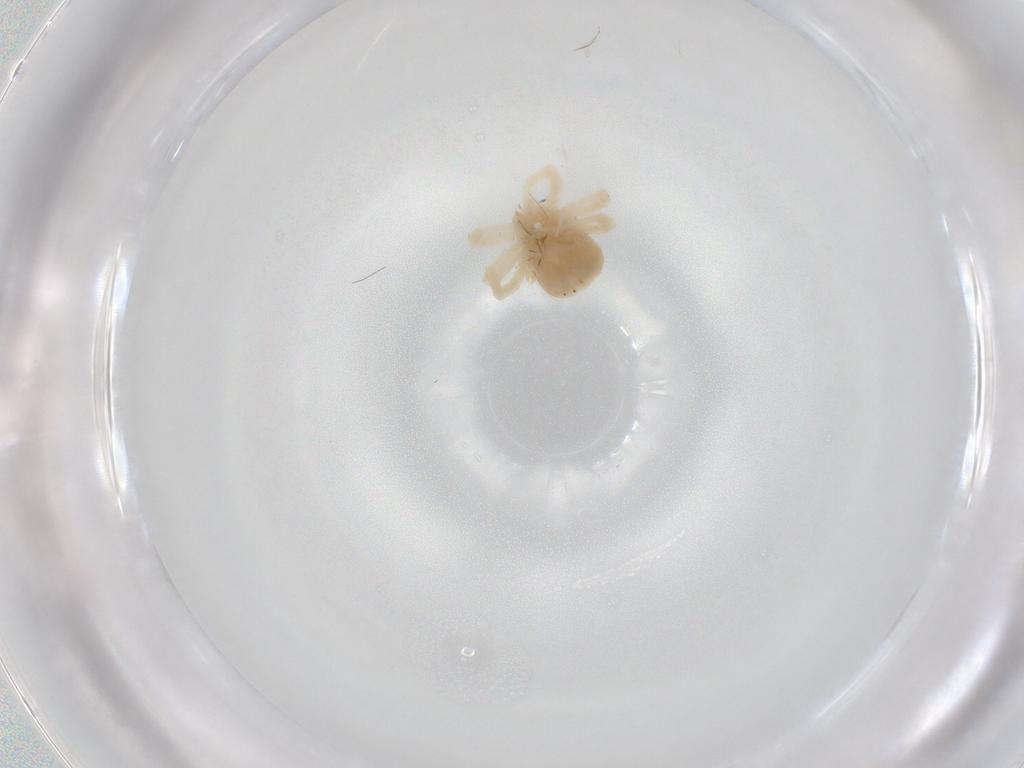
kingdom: Animalia
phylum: Arthropoda
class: Arachnida
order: Trombidiformes
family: Anystidae
